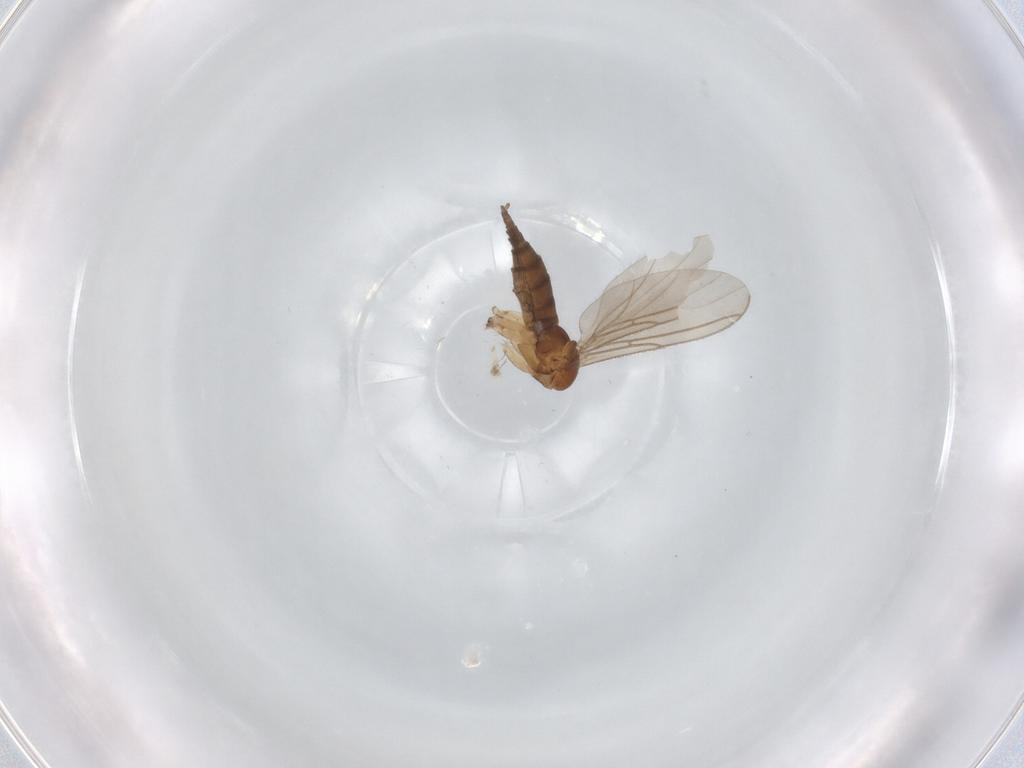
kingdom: Animalia
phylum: Arthropoda
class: Insecta
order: Diptera
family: Sciaridae
